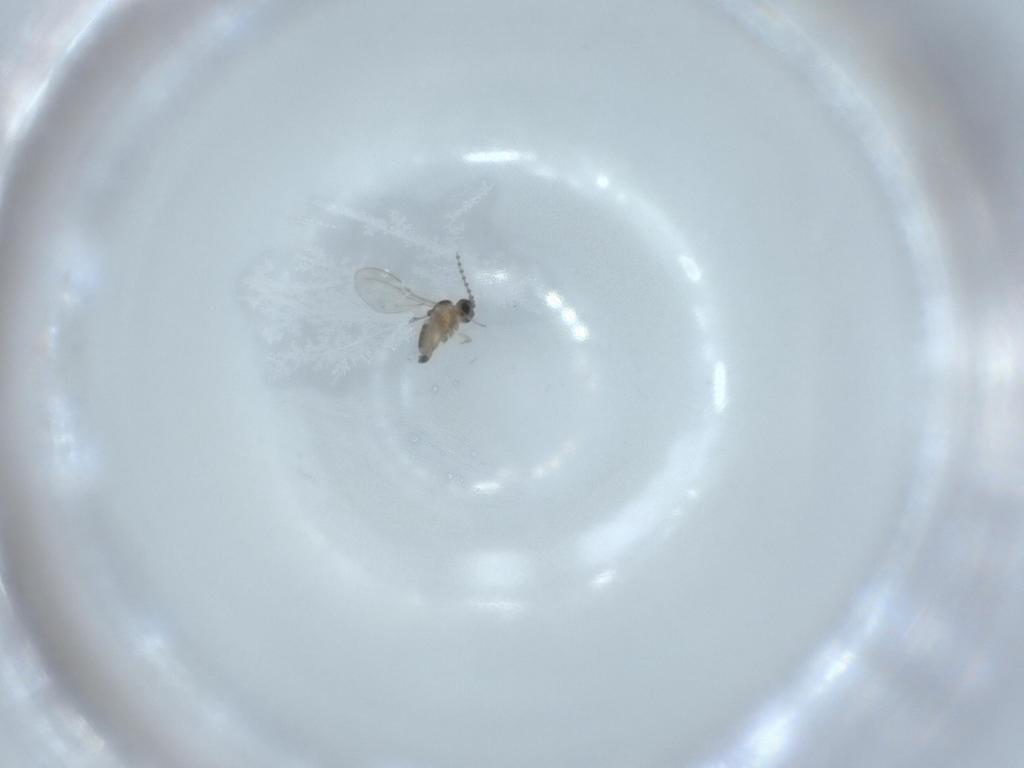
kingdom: Animalia
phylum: Arthropoda
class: Insecta
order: Diptera
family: Cecidomyiidae
